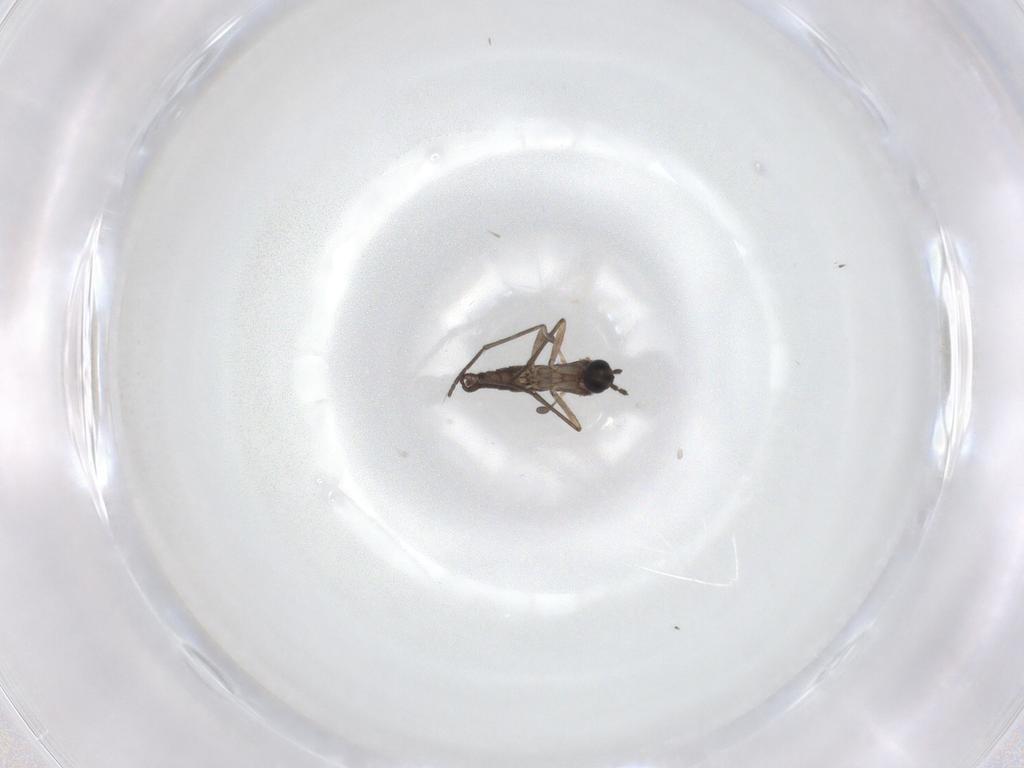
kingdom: Animalia
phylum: Arthropoda
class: Insecta
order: Diptera
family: Sciaridae
